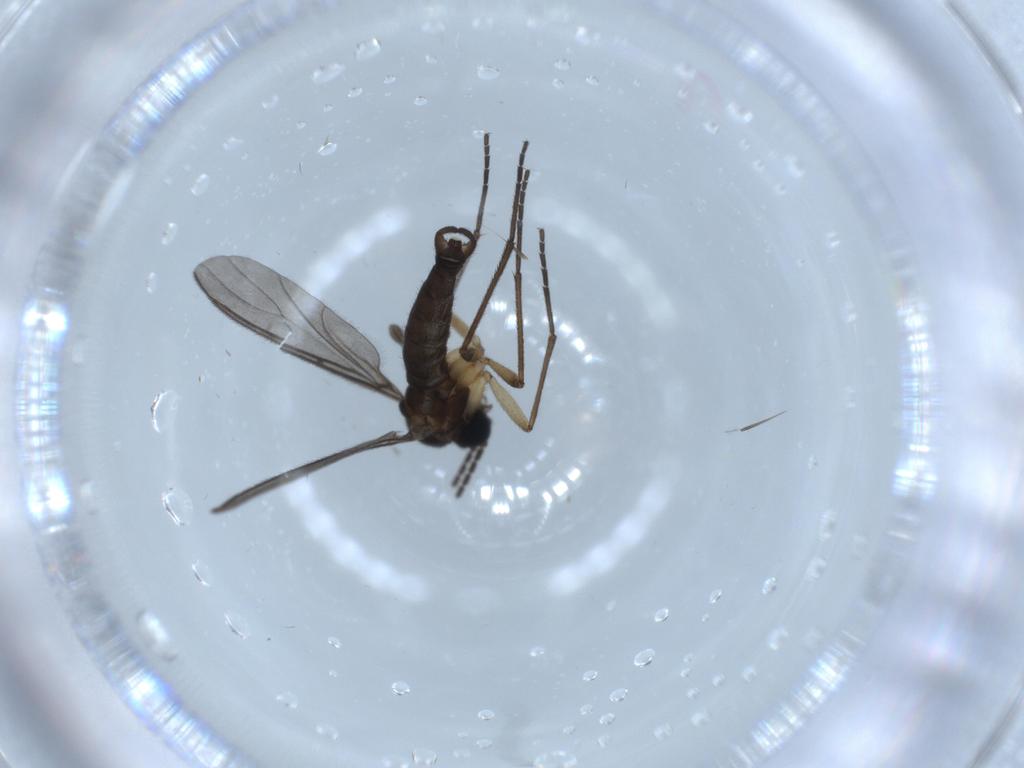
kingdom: Animalia
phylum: Arthropoda
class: Insecta
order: Diptera
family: Sciaridae
